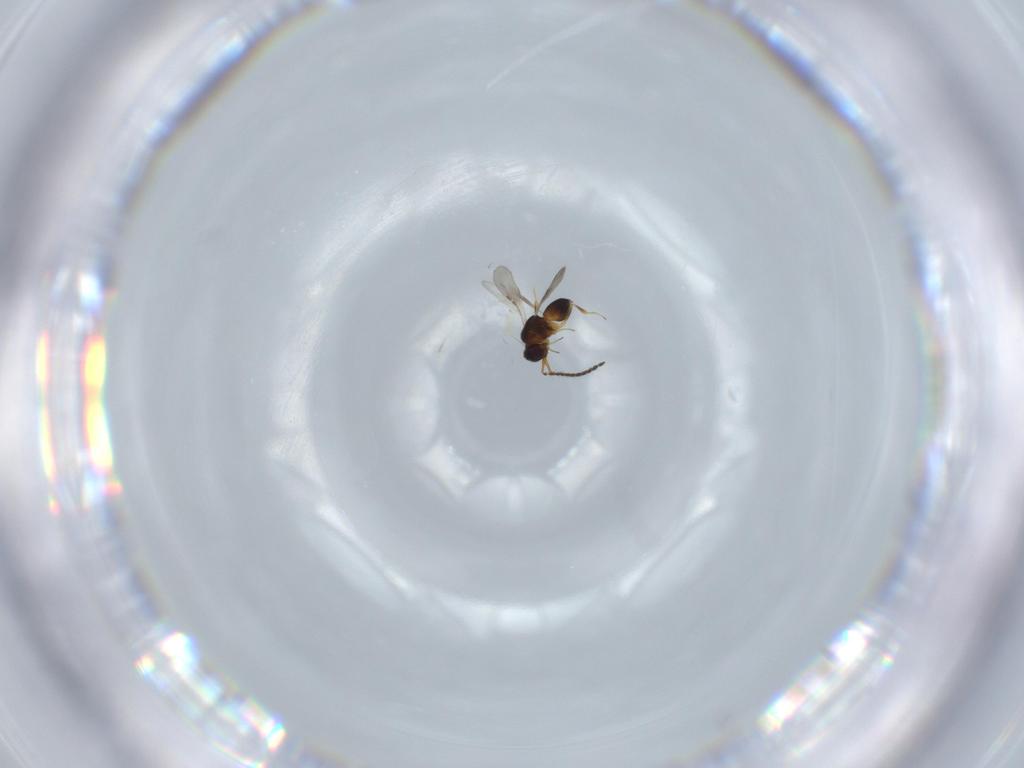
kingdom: Animalia
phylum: Arthropoda
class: Insecta
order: Hymenoptera
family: Ceraphronidae
